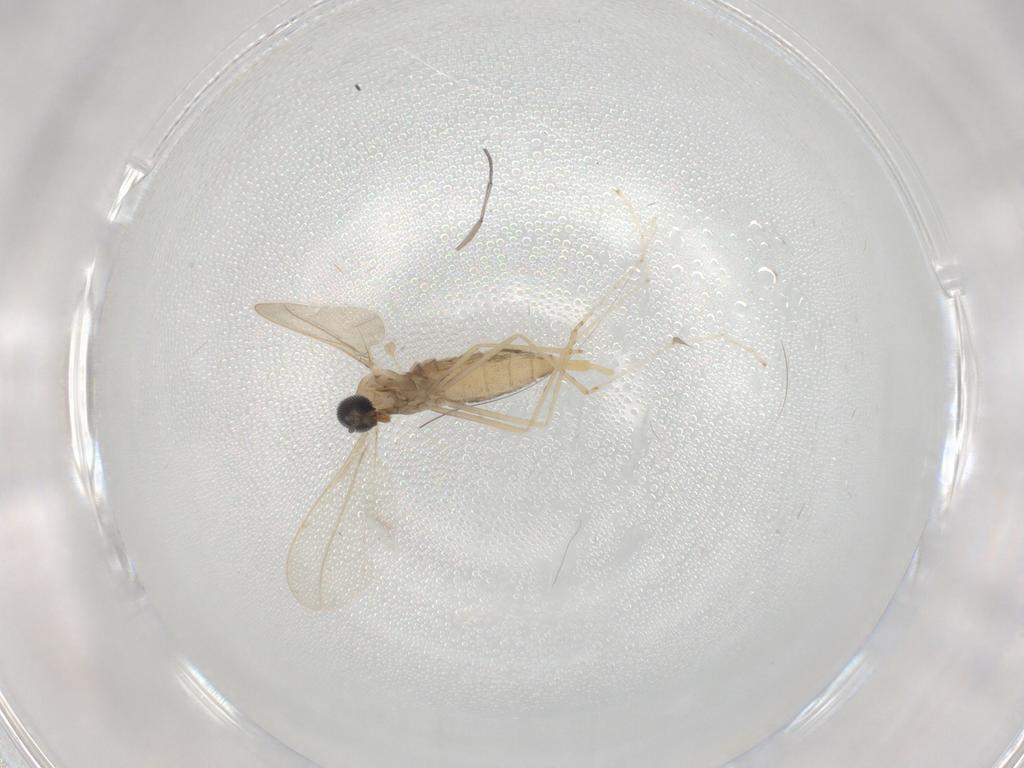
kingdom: Animalia
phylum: Arthropoda
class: Insecta
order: Diptera
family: Dolichopodidae
